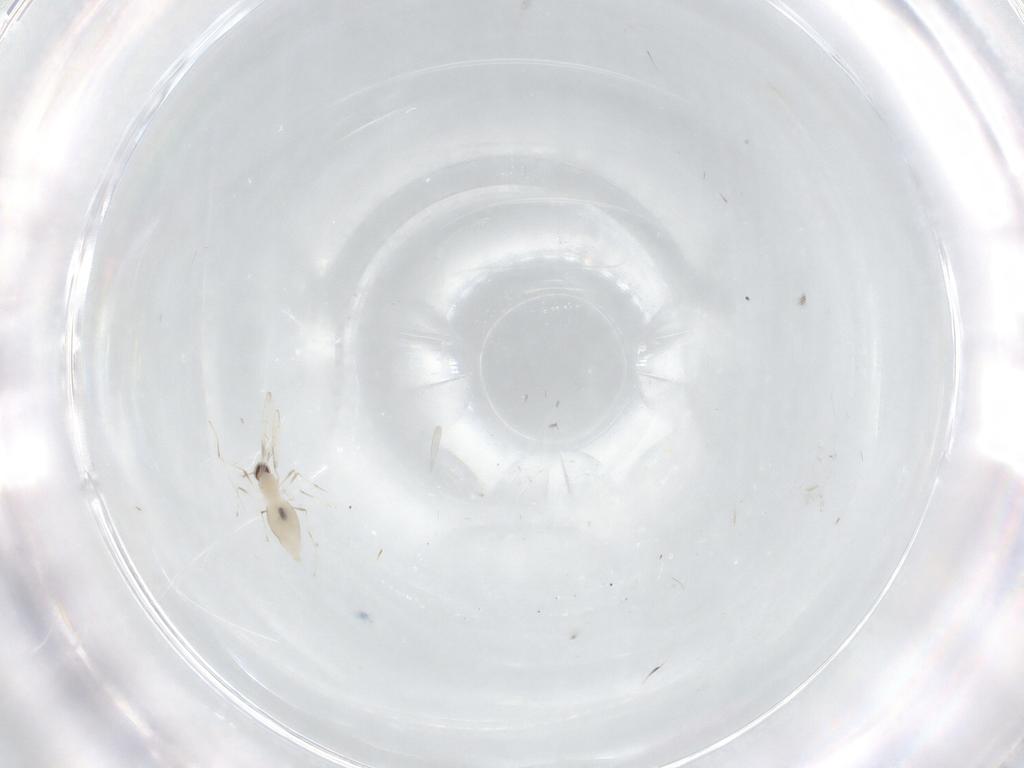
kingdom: Animalia
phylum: Arthropoda
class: Insecta
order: Diptera
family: Cecidomyiidae
